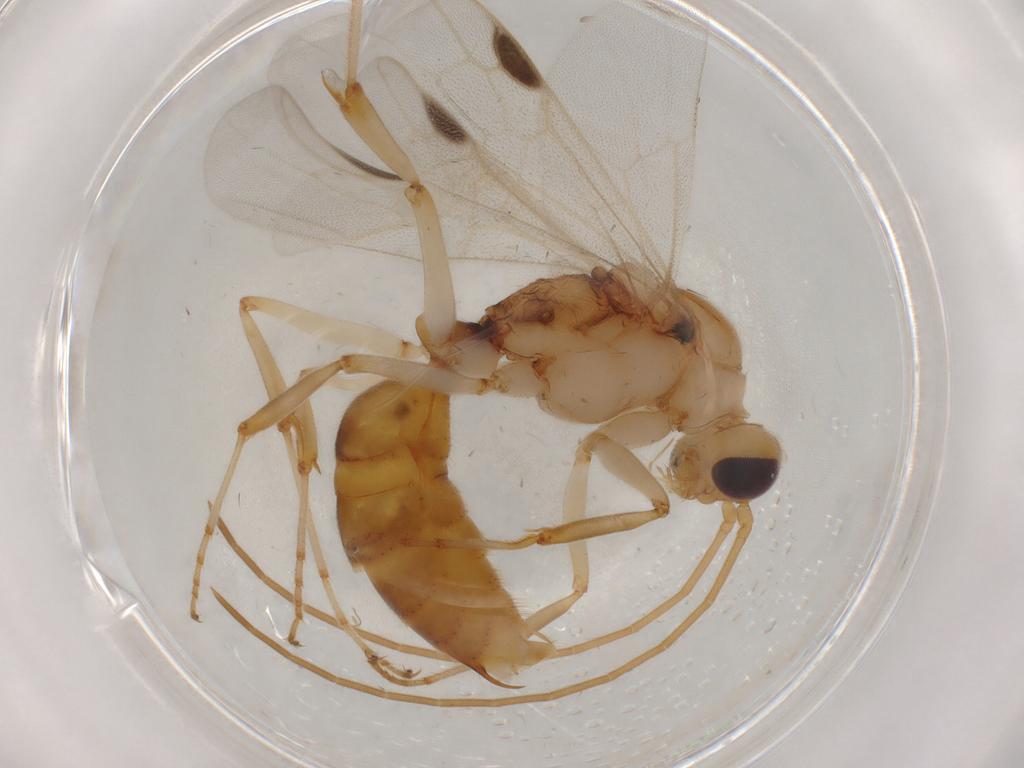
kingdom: Animalia
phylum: Arthropoda
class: Insecta
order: Hymenoptera
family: Formicidae
